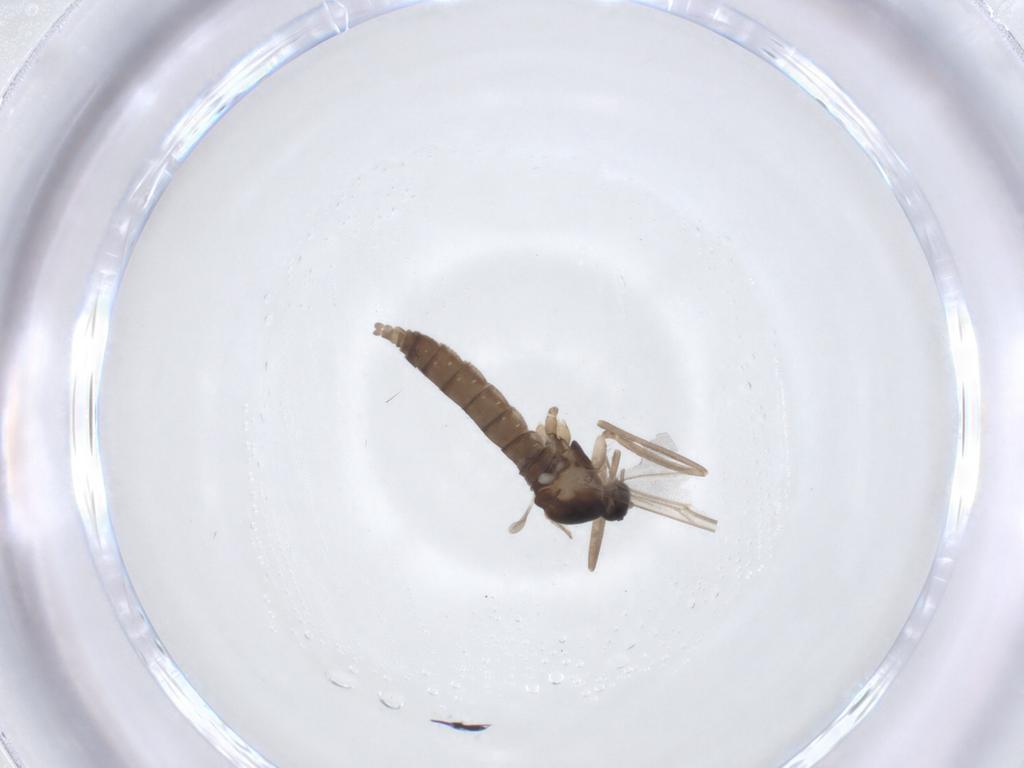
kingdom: Animalia
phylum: Arthropoda
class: Insecta
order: Diptera
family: Cecidomyiidae
